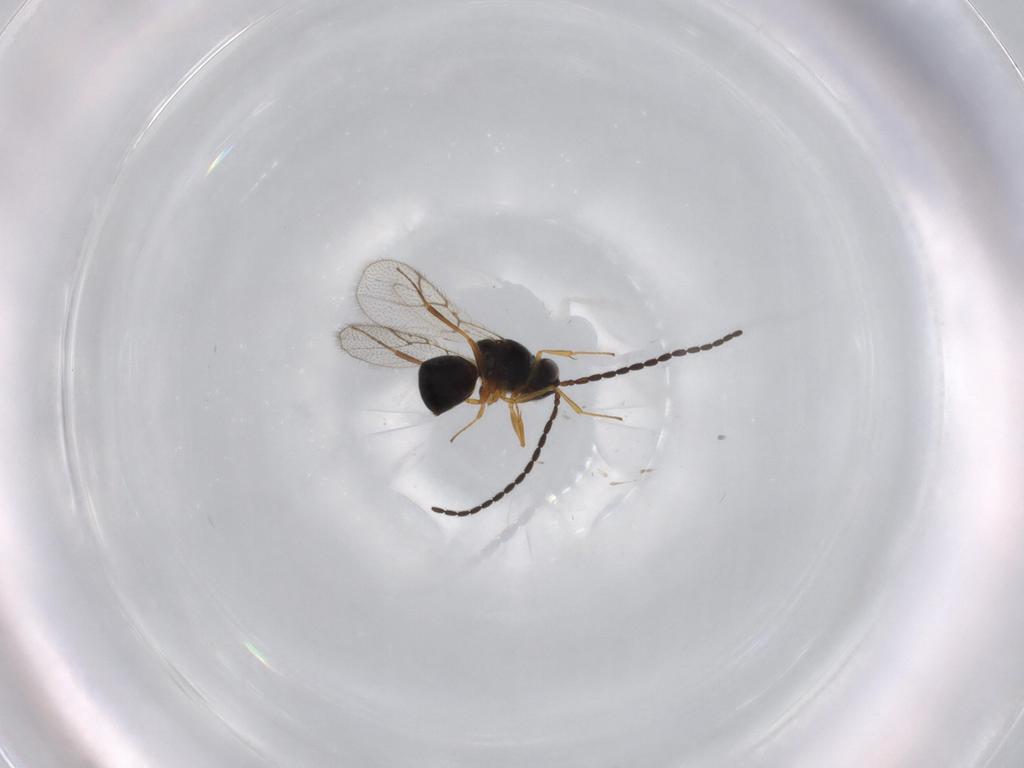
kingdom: Animalia
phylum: Arthropoda
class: Insecta
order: Hymenoptera
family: Figitidae
